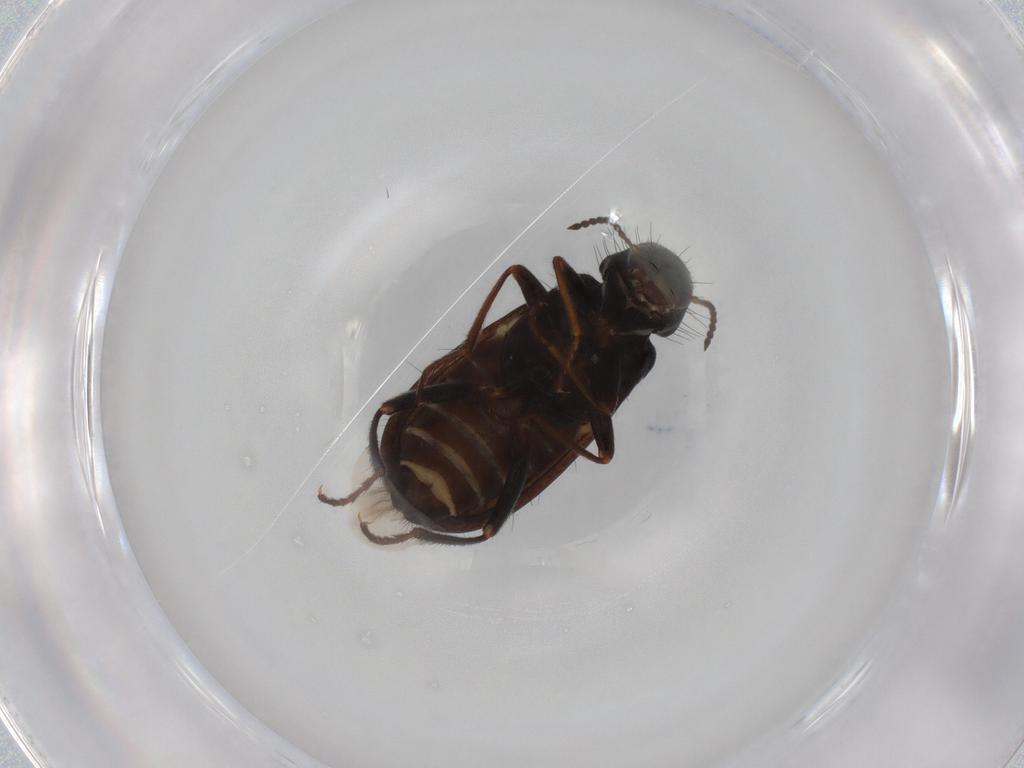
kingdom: Animalia
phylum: Arthropoda
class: Insecta
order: Coleoptera
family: Melyridae
